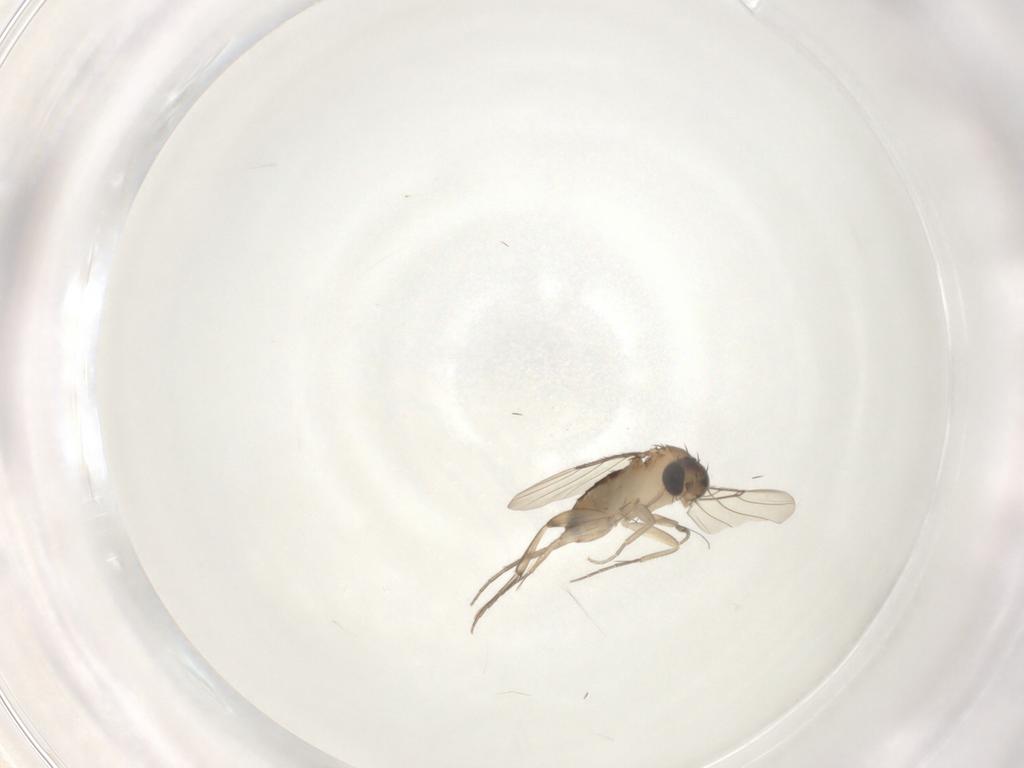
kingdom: Animalia
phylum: Arthropoda
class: Insecta
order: Diptera
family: Phoridae
